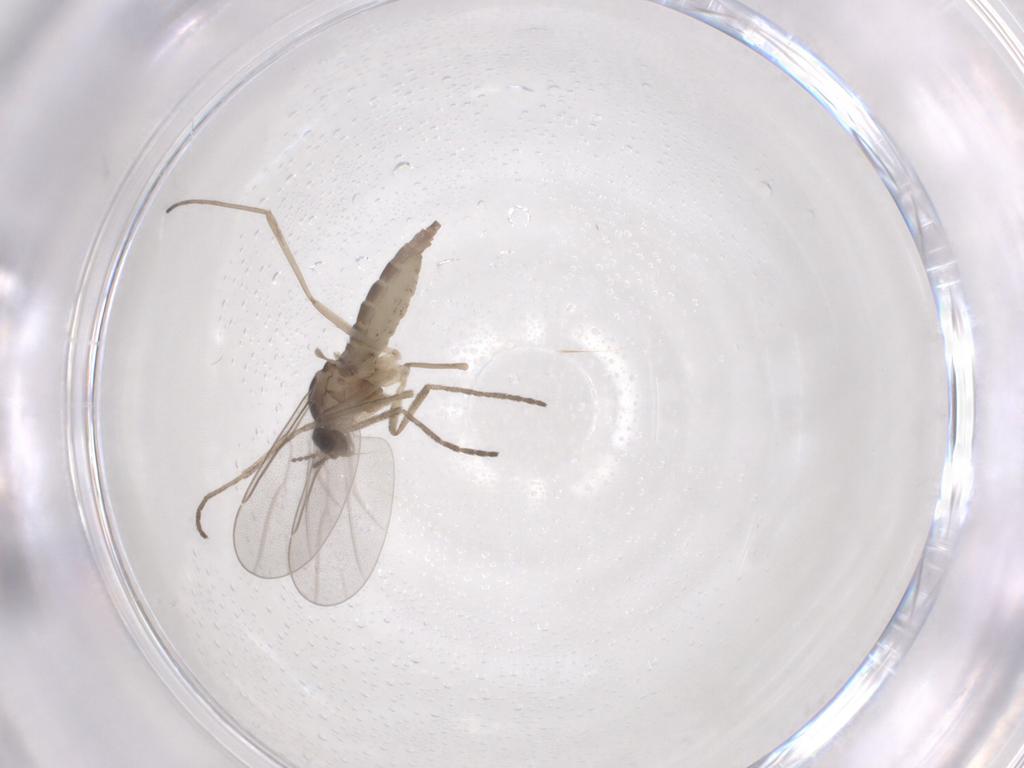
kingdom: Animalia
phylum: Arthropoda
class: Insecta
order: Diptera
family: Cecidomyiidae
